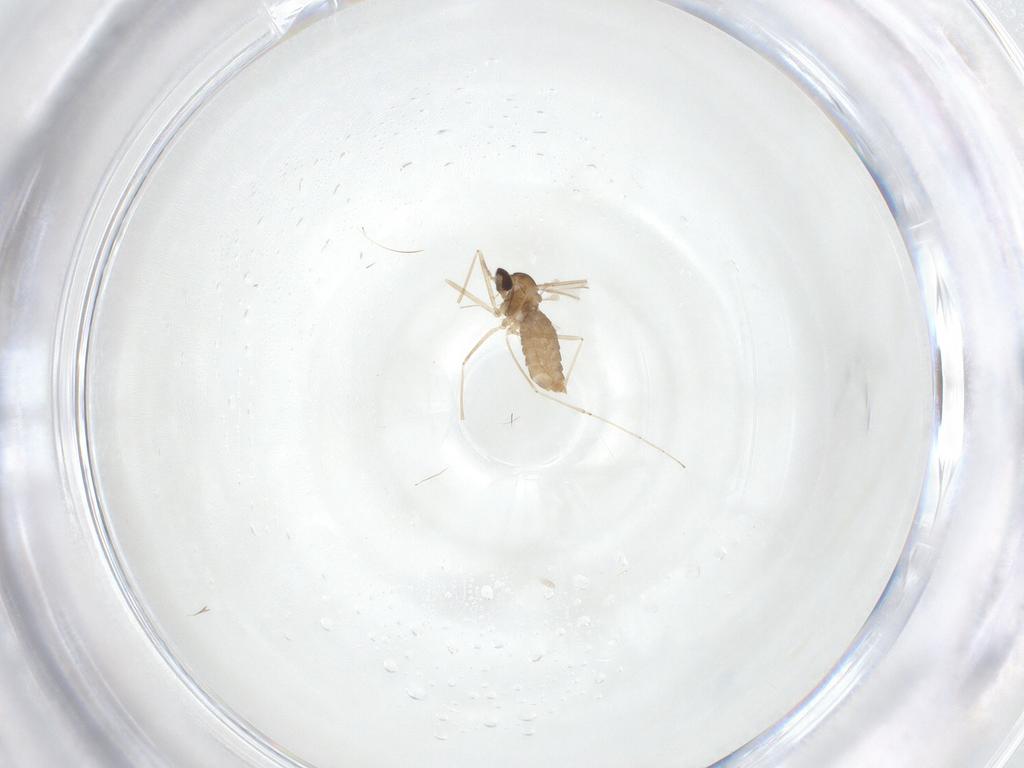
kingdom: Animalia
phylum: Arthropoda
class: Insecta
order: Diptera
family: Cecidomyiidae
